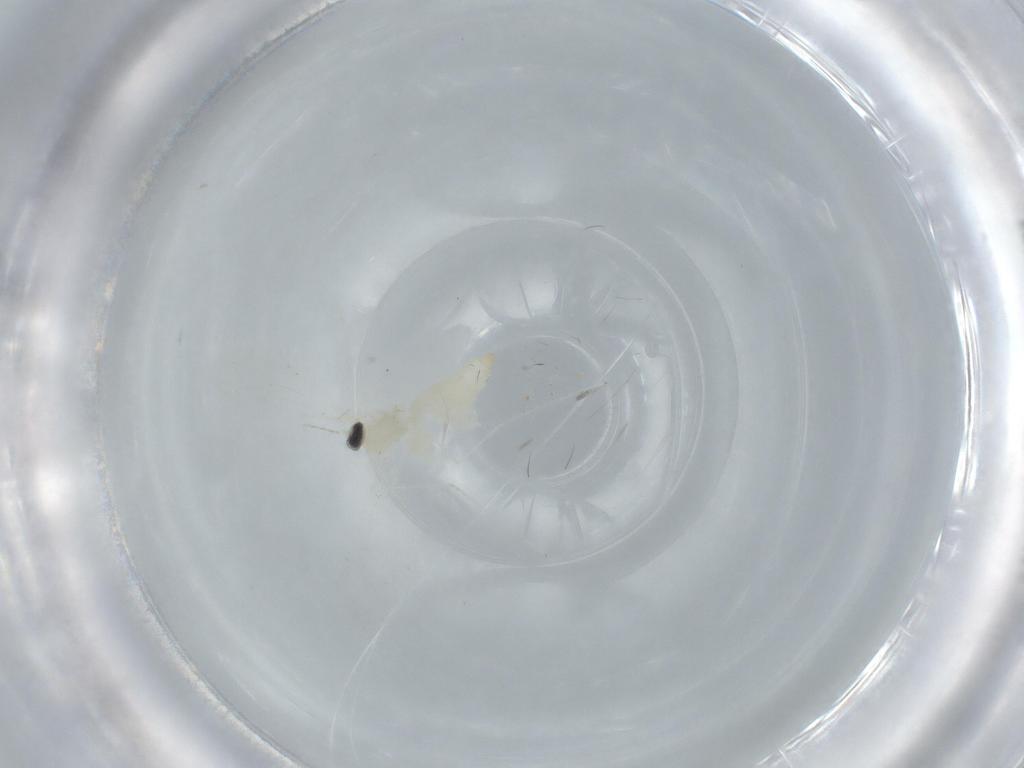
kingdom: Animalia
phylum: Arthropoda
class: Insecta
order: Diptera
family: Cecidomyiidae
